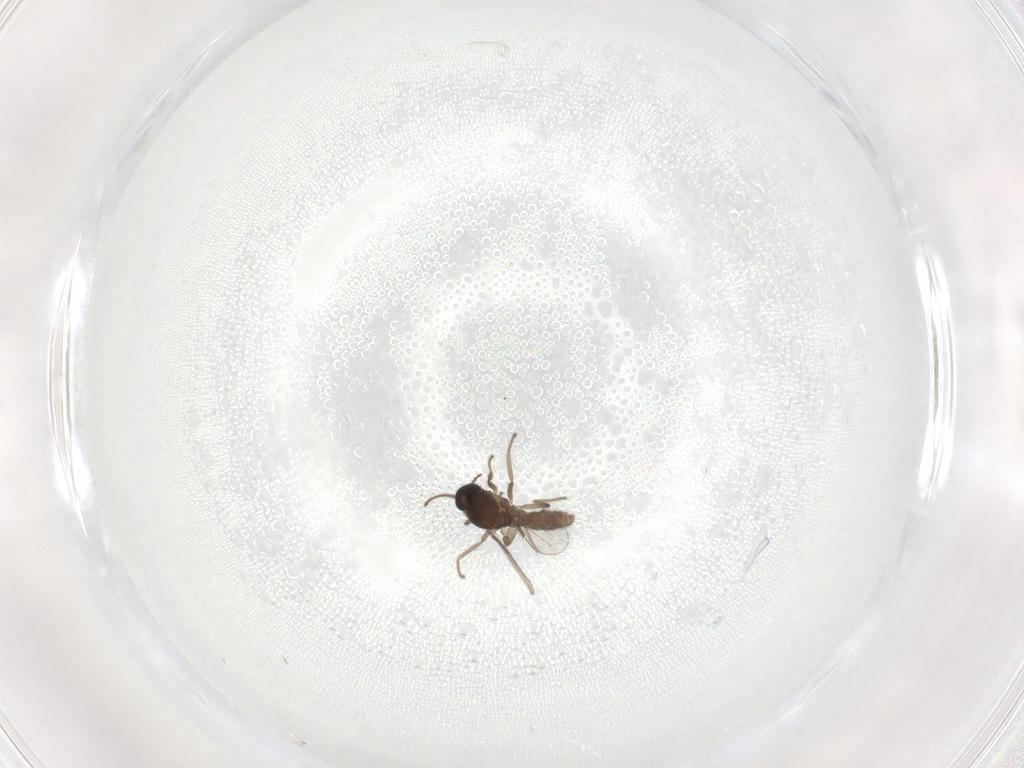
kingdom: Animalia
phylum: Arthropoda
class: Insecta
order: Diptera
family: Ceratopogonidae
